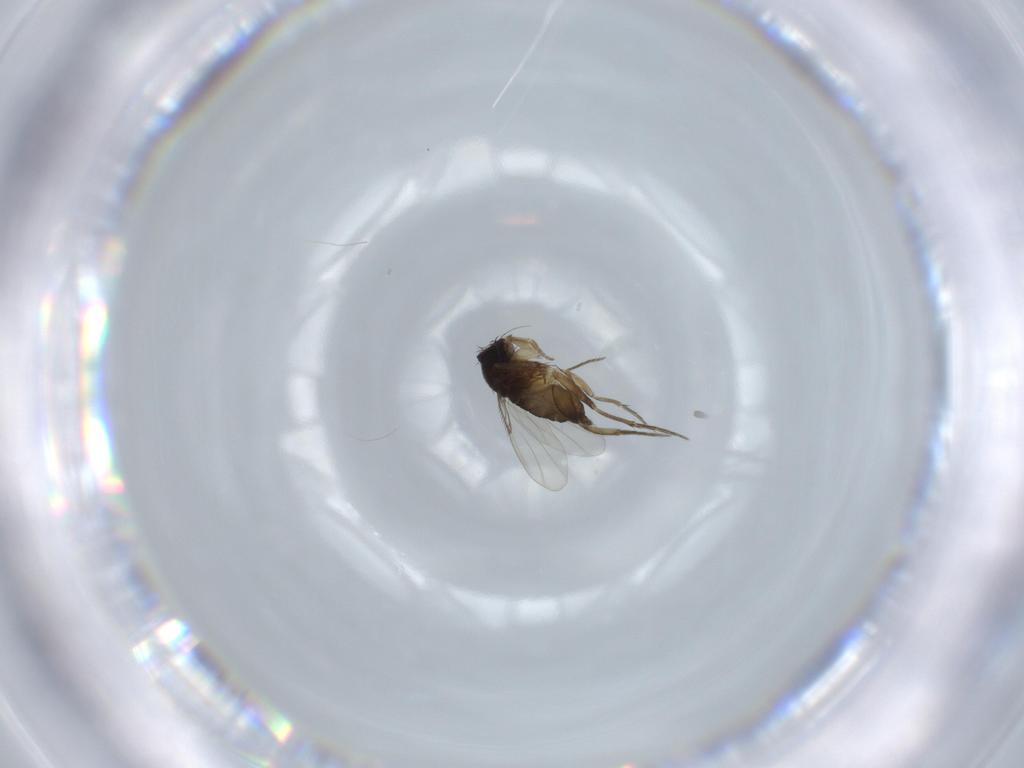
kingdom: Animalia
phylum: Arthropoda
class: Insecta
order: Diptera
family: Phoridae
